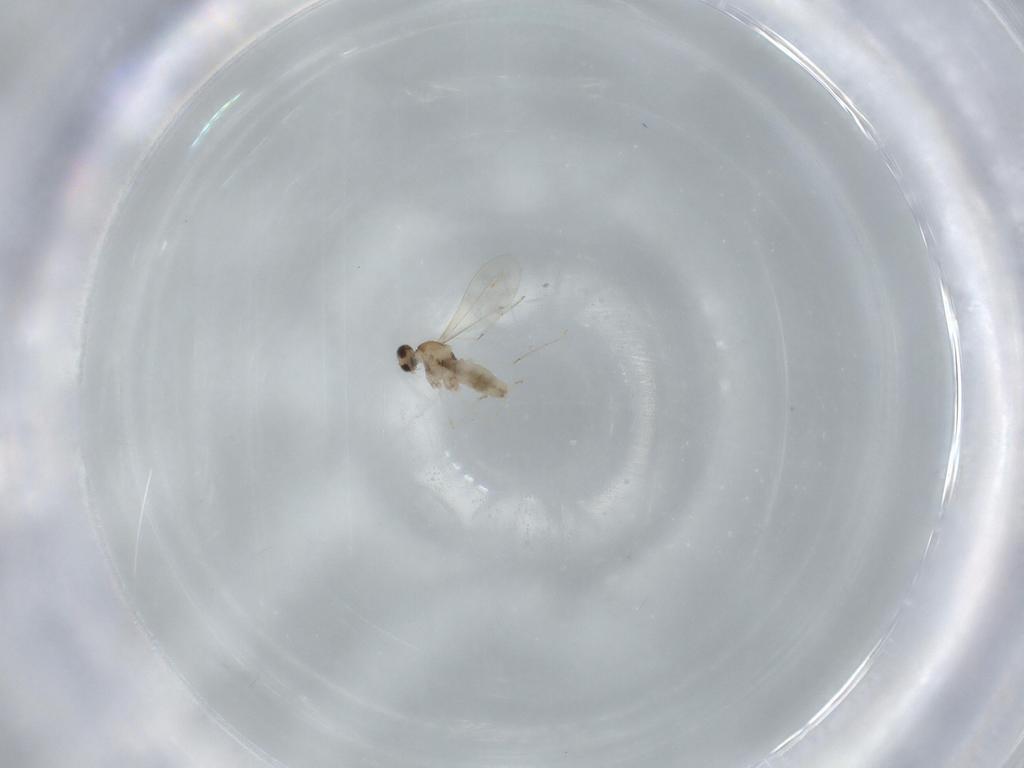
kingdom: Animalia
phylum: Arthropoda
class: Insecta
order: Diptera
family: Cecidomyiidae
